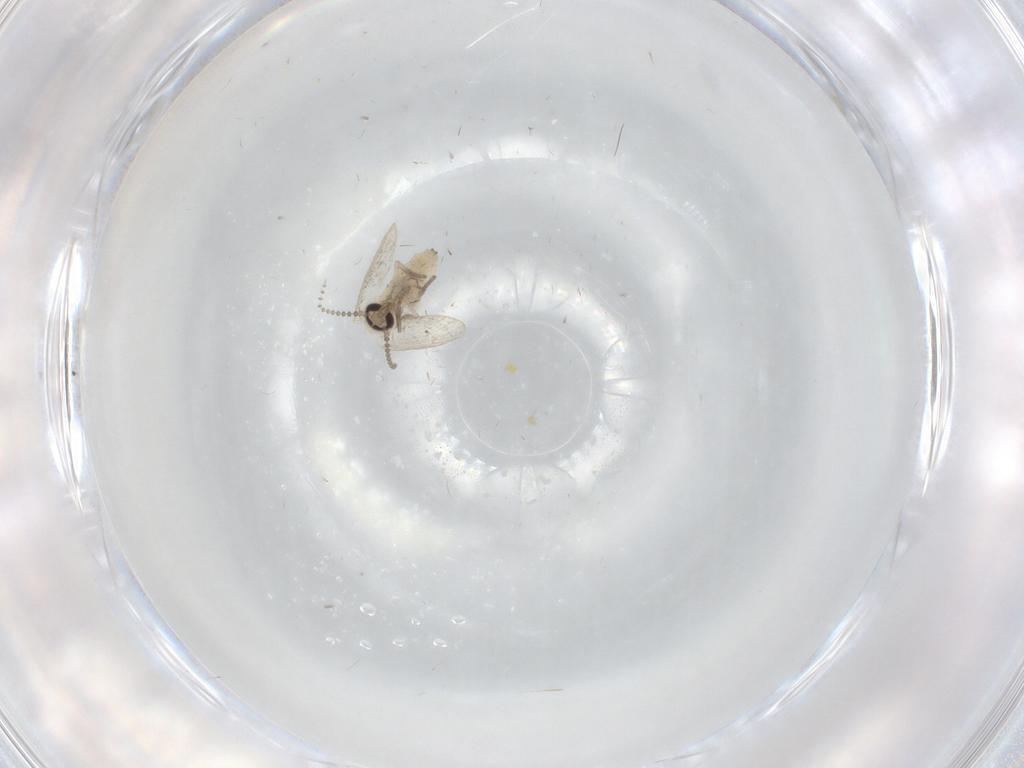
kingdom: Animalia
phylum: Arthropoda
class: Insecta
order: Diptera
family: Psychodidae
